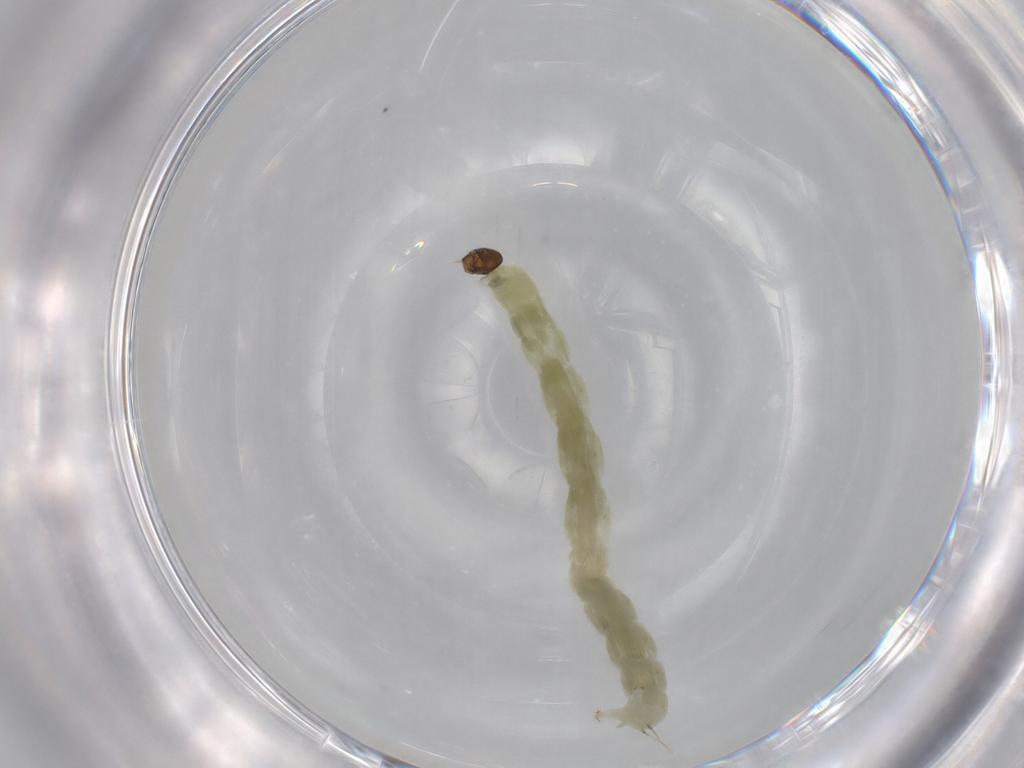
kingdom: Animalia
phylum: Arthropoda
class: Insecta
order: Diptera
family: Chironomidae
